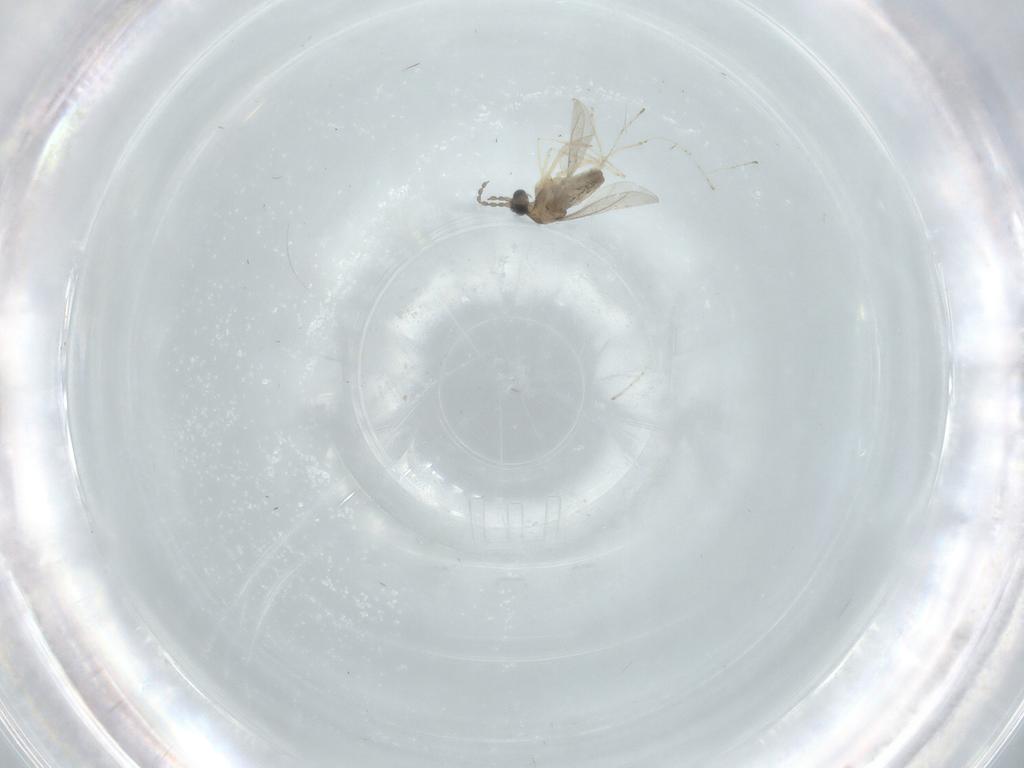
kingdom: Animalia
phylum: Arthropoda
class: Insecta
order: Diptera
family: Cecidomyiidae
